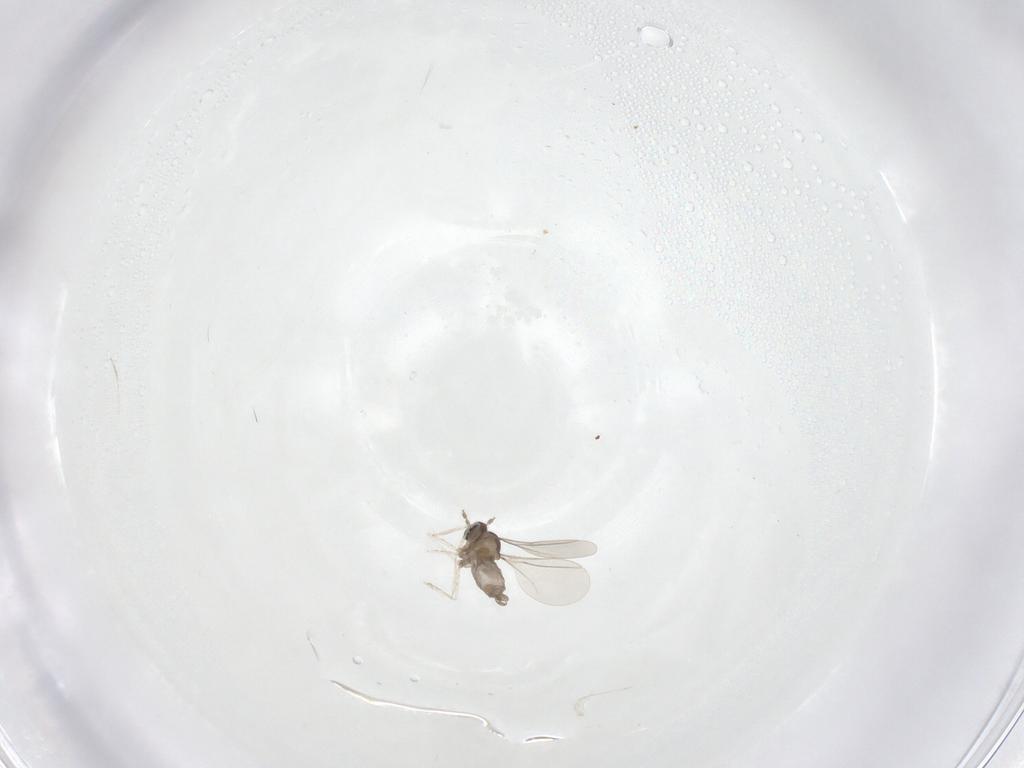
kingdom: Animalia
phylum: Arthropoda
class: Insecta
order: Diptera
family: Cecidomyiidae
